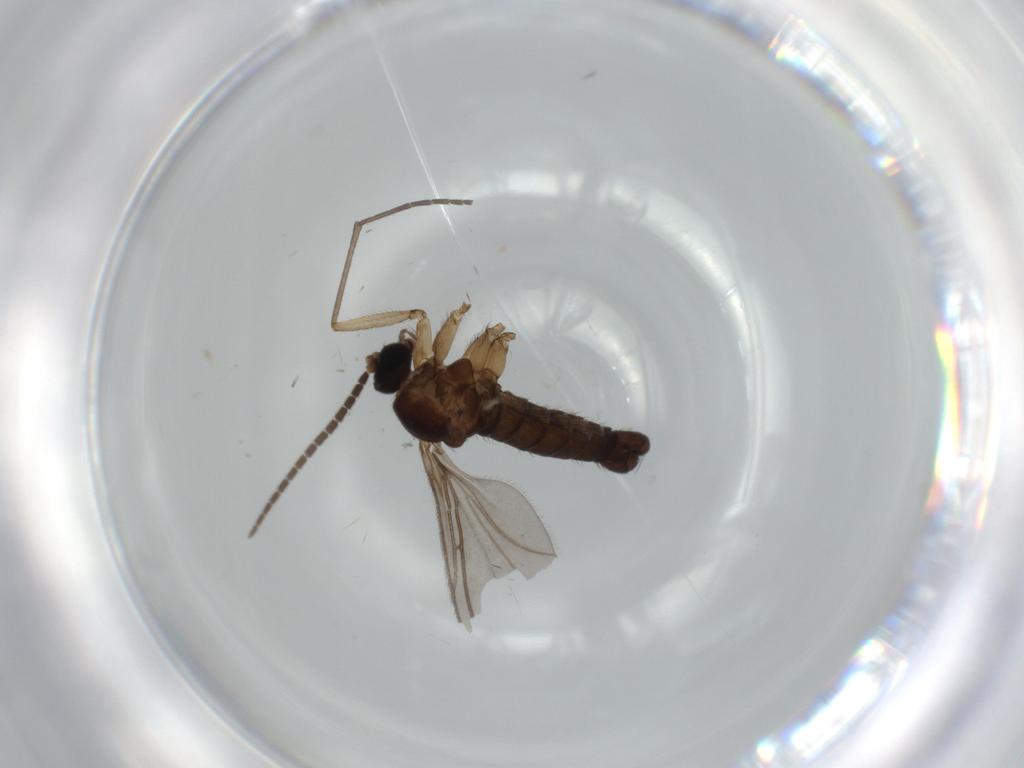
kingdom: Animalia
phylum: Arthropoda
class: Insecta
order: Diptera
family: Sciaridae
